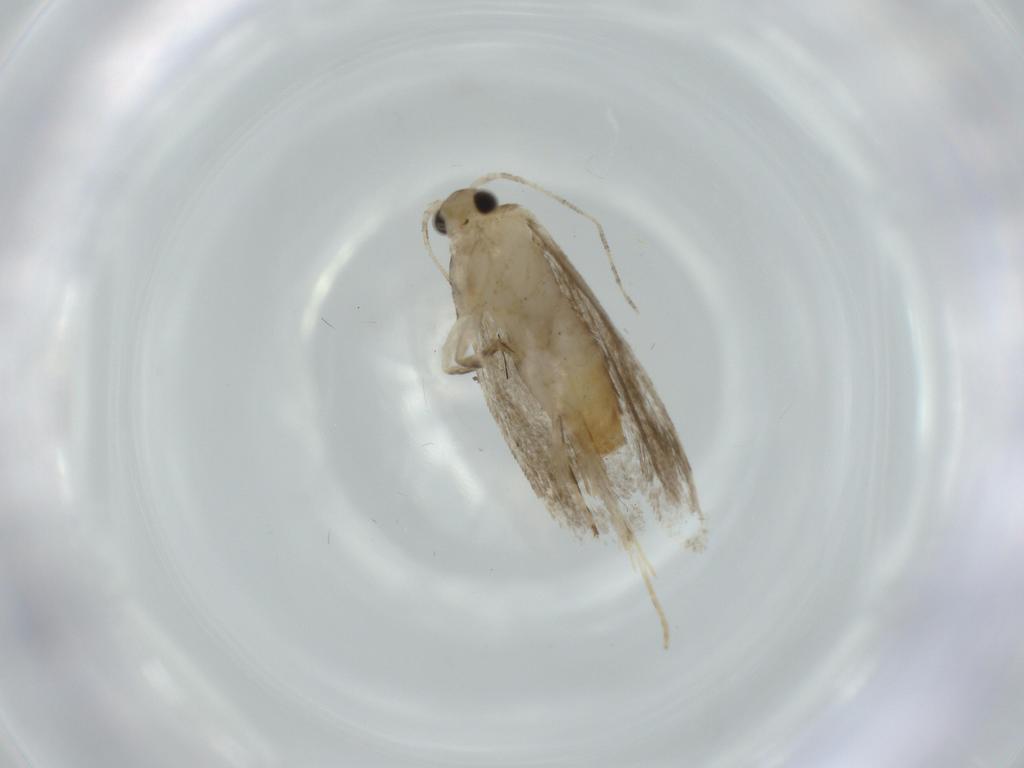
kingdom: Animalia
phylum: Arthropoda
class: Insecta
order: Lepidoptera
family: Tineidae
